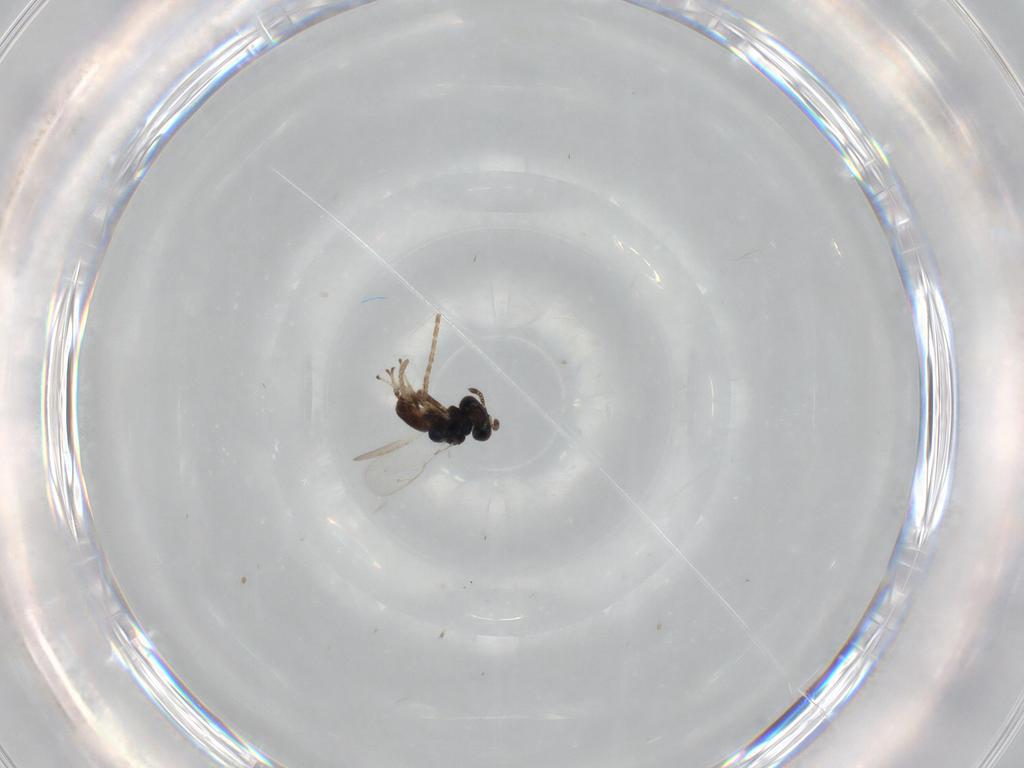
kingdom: Animalia
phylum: Arthropoda
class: Insecta
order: Hymenoptera
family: Pteromalidae
